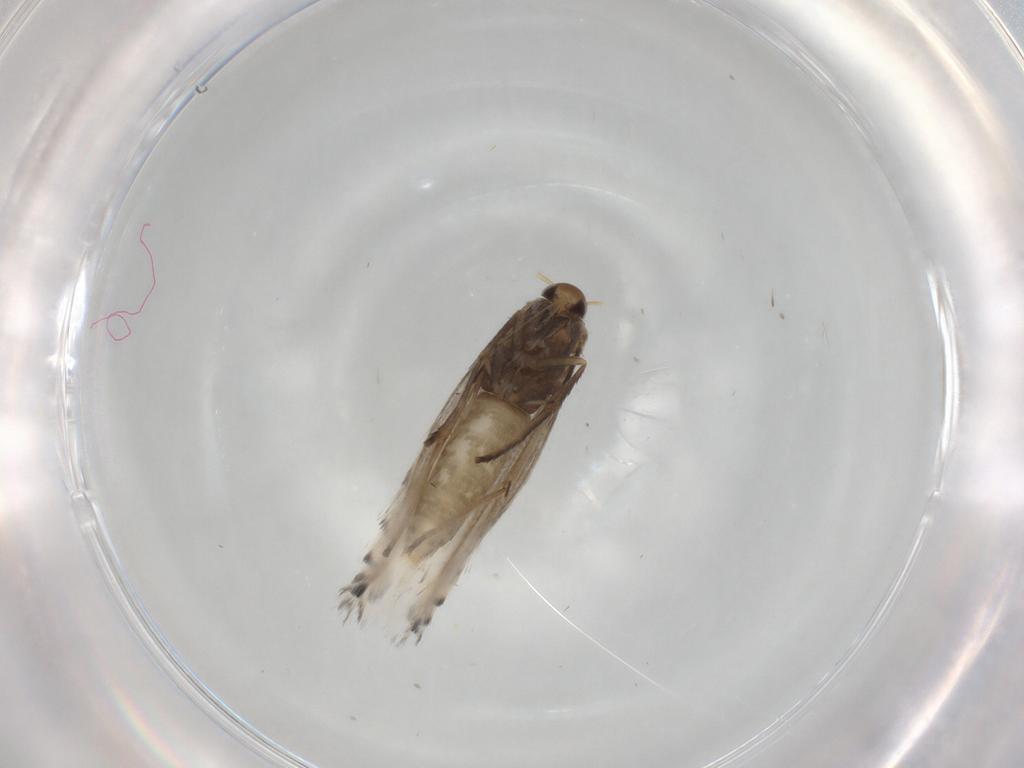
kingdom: Animalia
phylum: Arthropoda
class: Insecta
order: Lepidoptera
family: Gracillariidae
